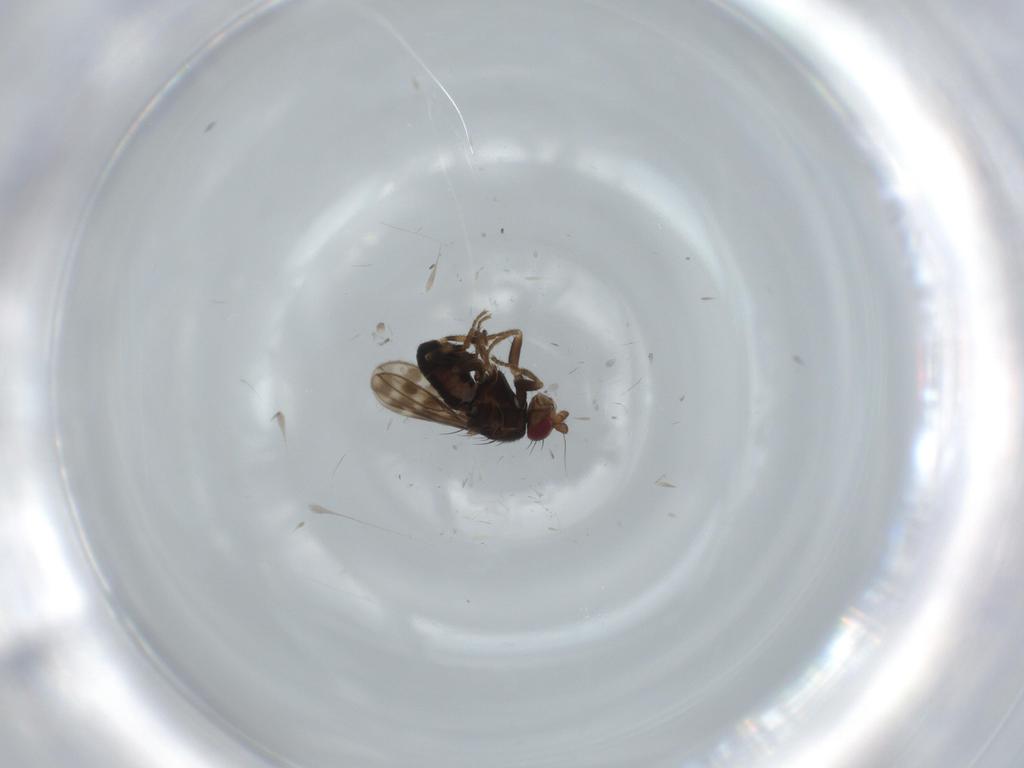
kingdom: Animalia
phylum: Arthropoda
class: Insecta
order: Diptera
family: Sphaeroceridae
